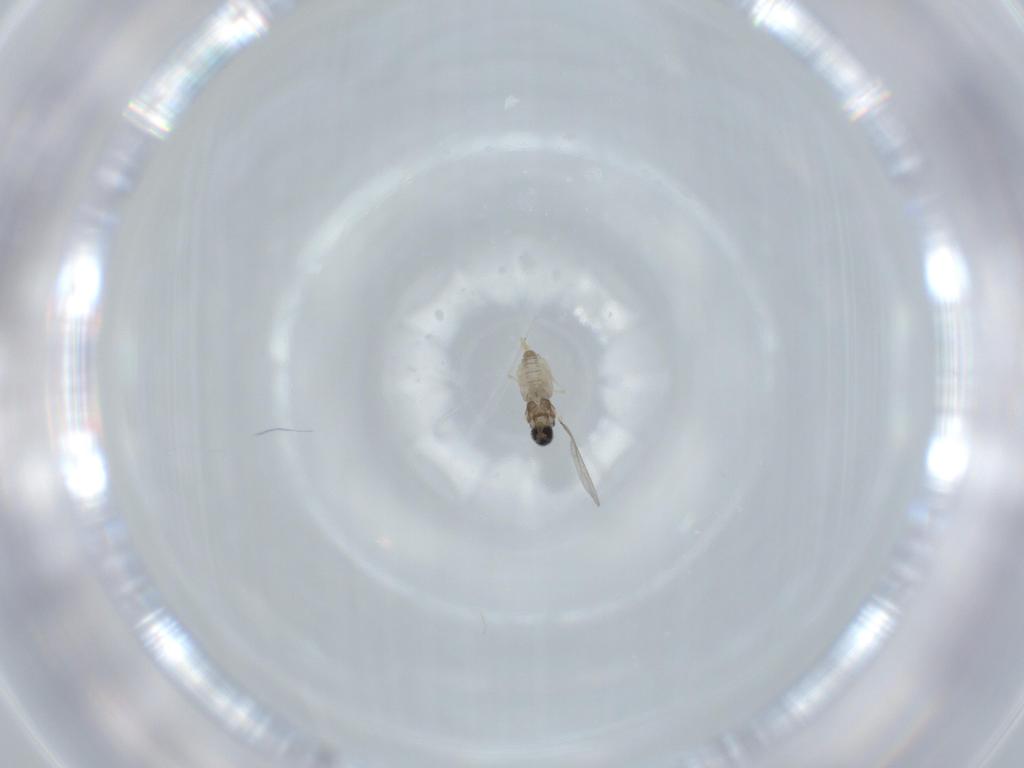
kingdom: Animalia
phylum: Arthropoda
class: Insecta
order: Diptera
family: Cecidomyiidae
